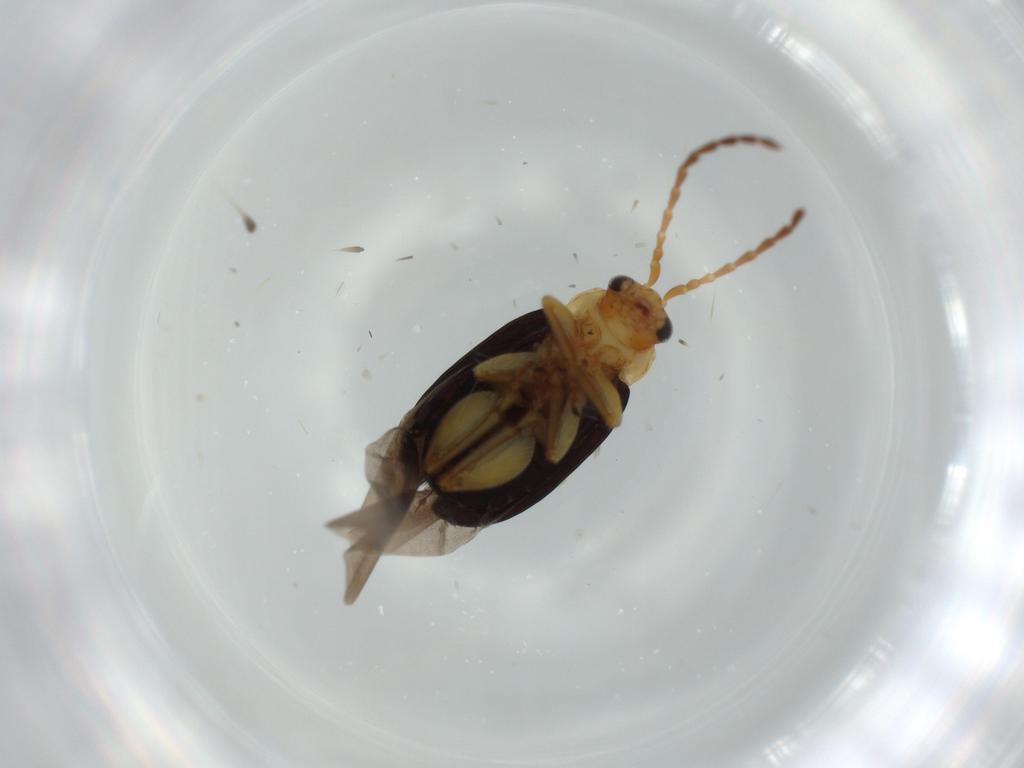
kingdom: Animalia
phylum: Arthropoda
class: Insecta
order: Coleoptera
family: Chrysomelidae
